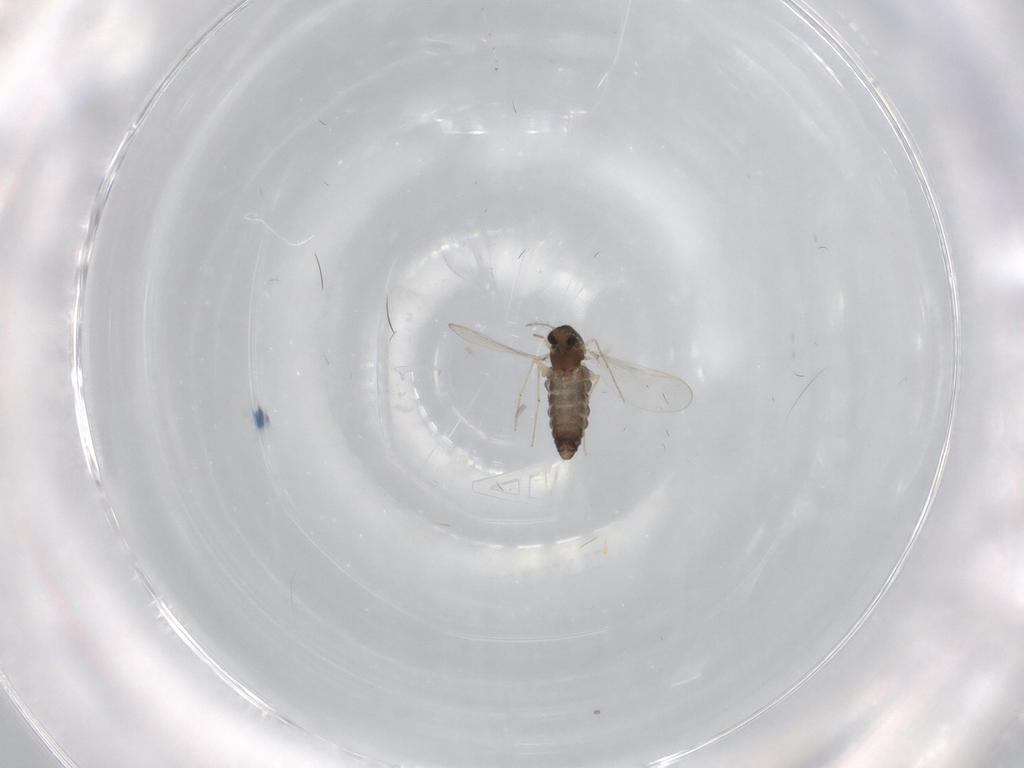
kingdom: Animalia
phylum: Arthropoda
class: Insecta
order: Diptera
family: Chironomidae
